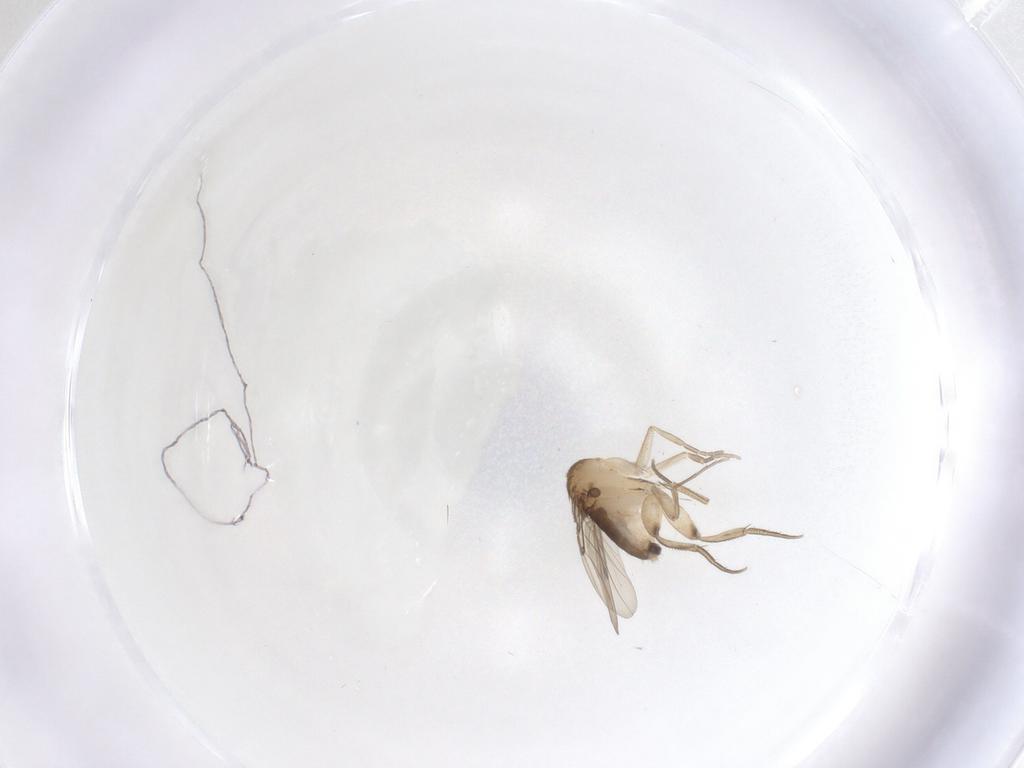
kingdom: Animalia
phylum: Arthropoda
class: Insecta
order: Diptera
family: Phoridae
